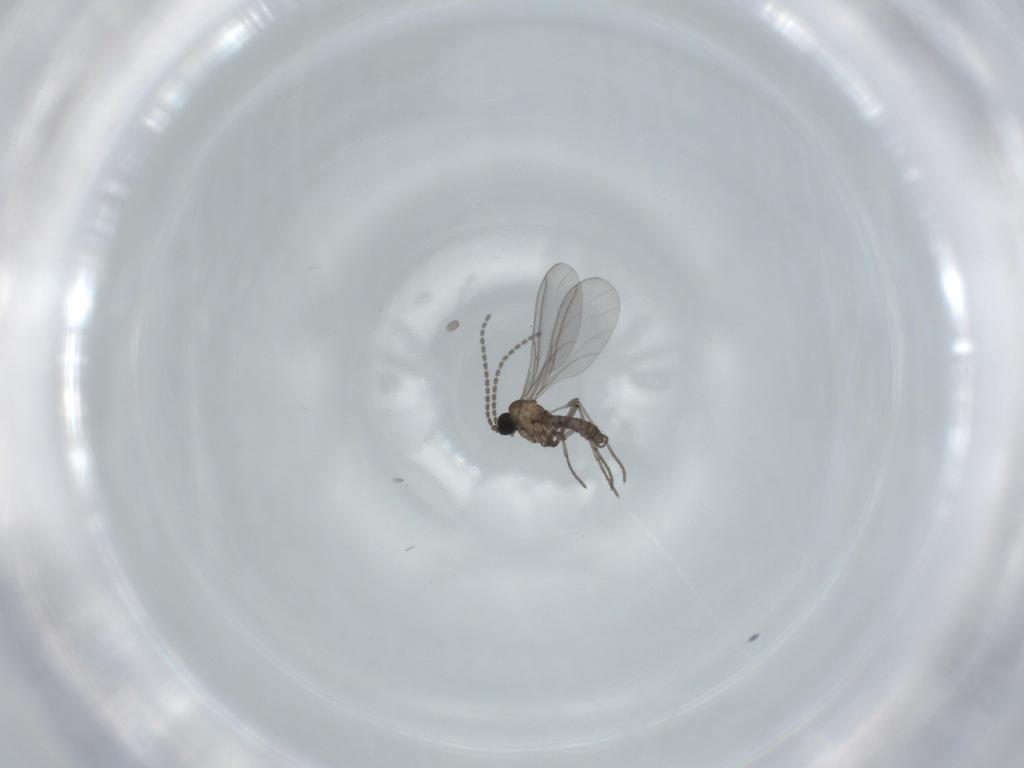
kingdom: Animalia
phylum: Arthropoda
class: Insecta
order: Diptera
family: Sciaridae
